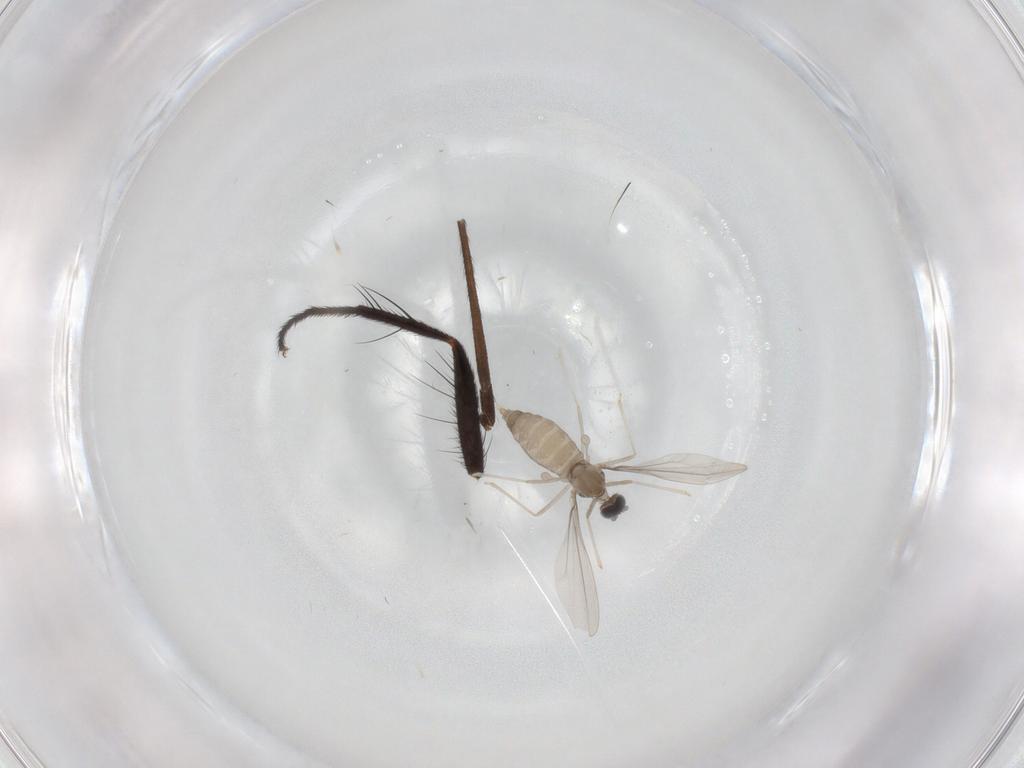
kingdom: Animalia
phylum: Arthropoda
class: Insecta
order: Diptera
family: Cecidomyiidae
